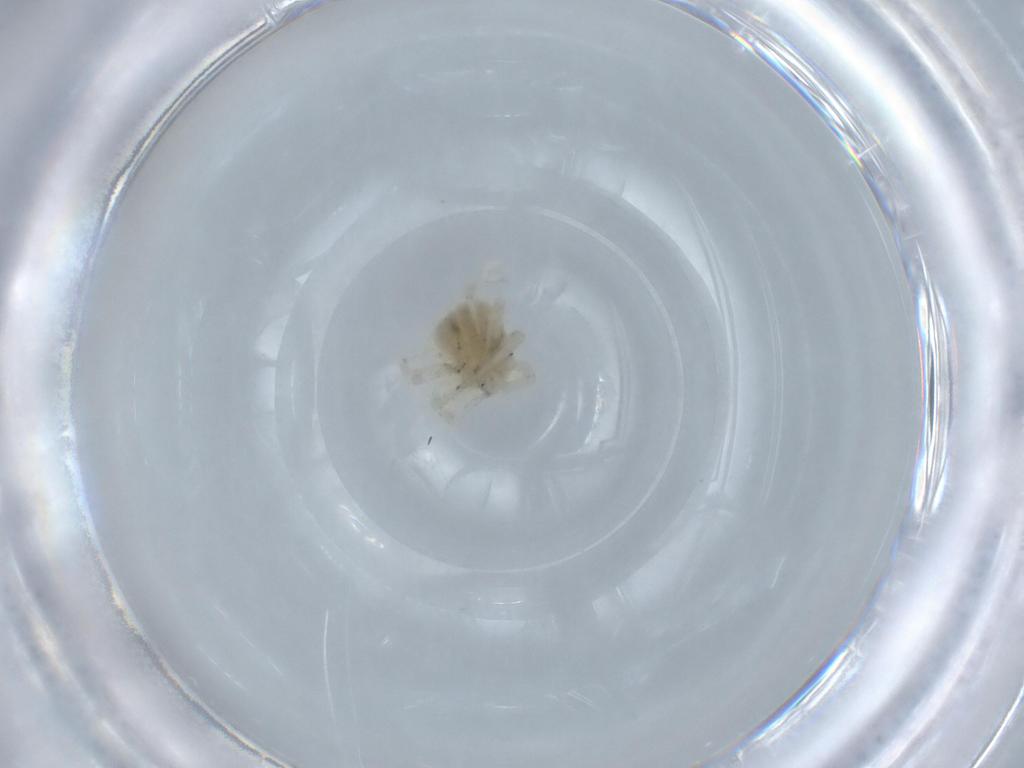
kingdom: Animalia
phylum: Arthropoda
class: Arachnida
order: Trombidiformes
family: Anystidae
